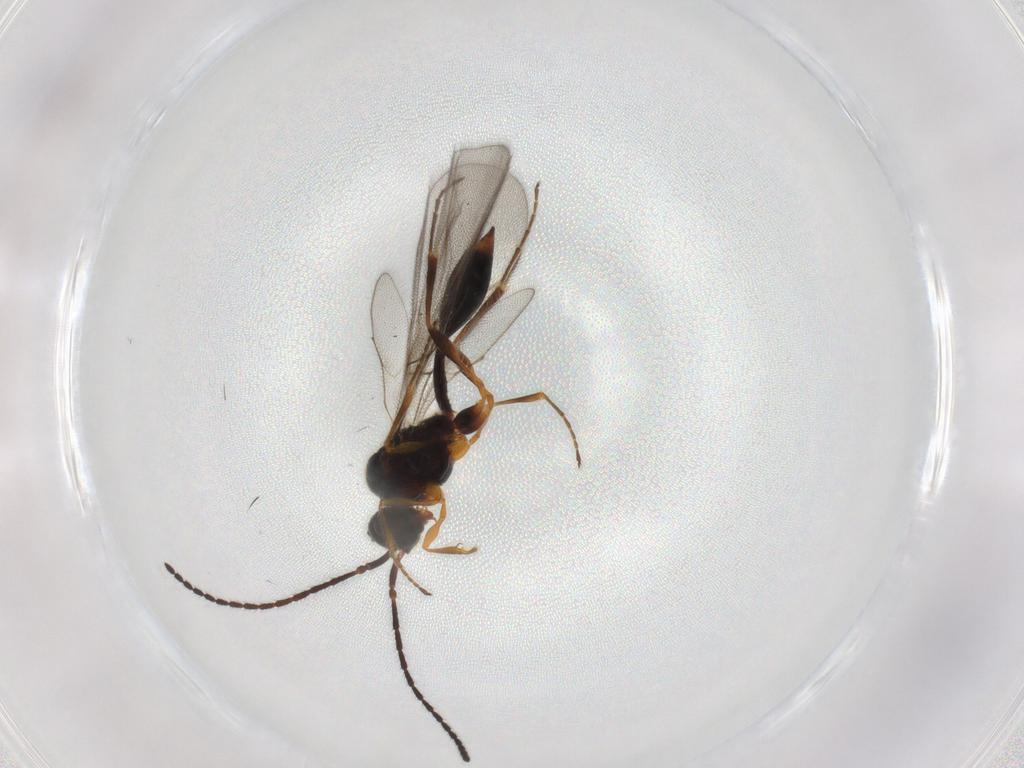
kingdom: Animalia
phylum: Arthropoda
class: Insecta
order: Hymenoptera
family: Diapriidae
